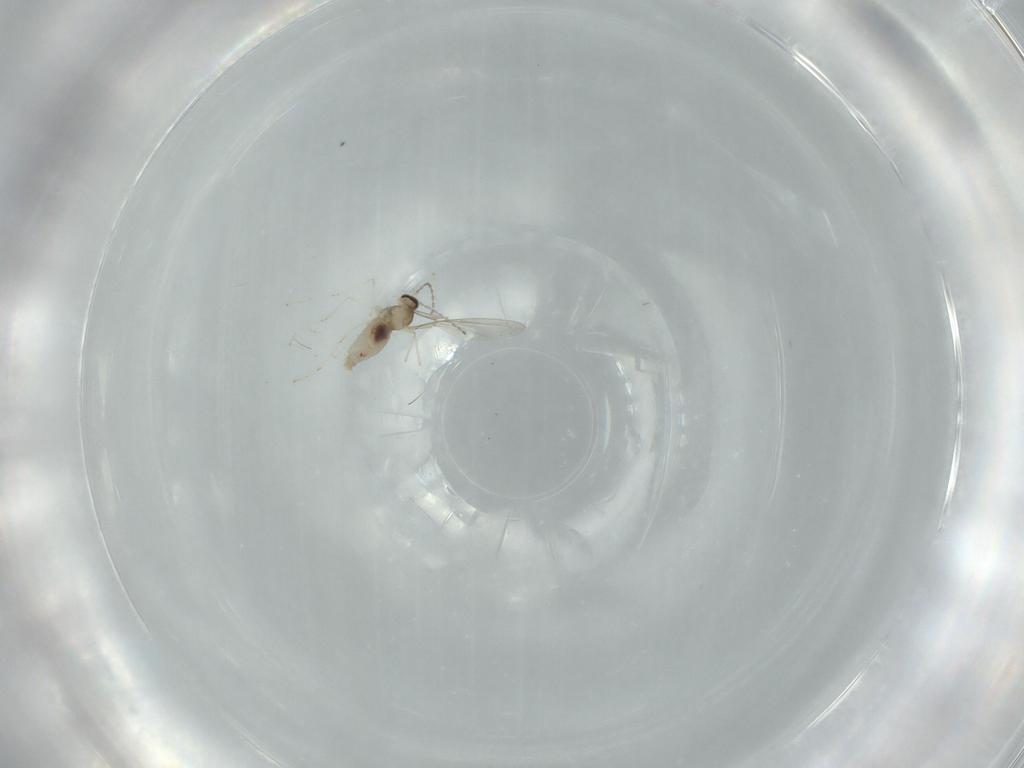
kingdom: Animalia
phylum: Arthropoda
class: Insecta
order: Diptera
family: Cecidomyiidae
